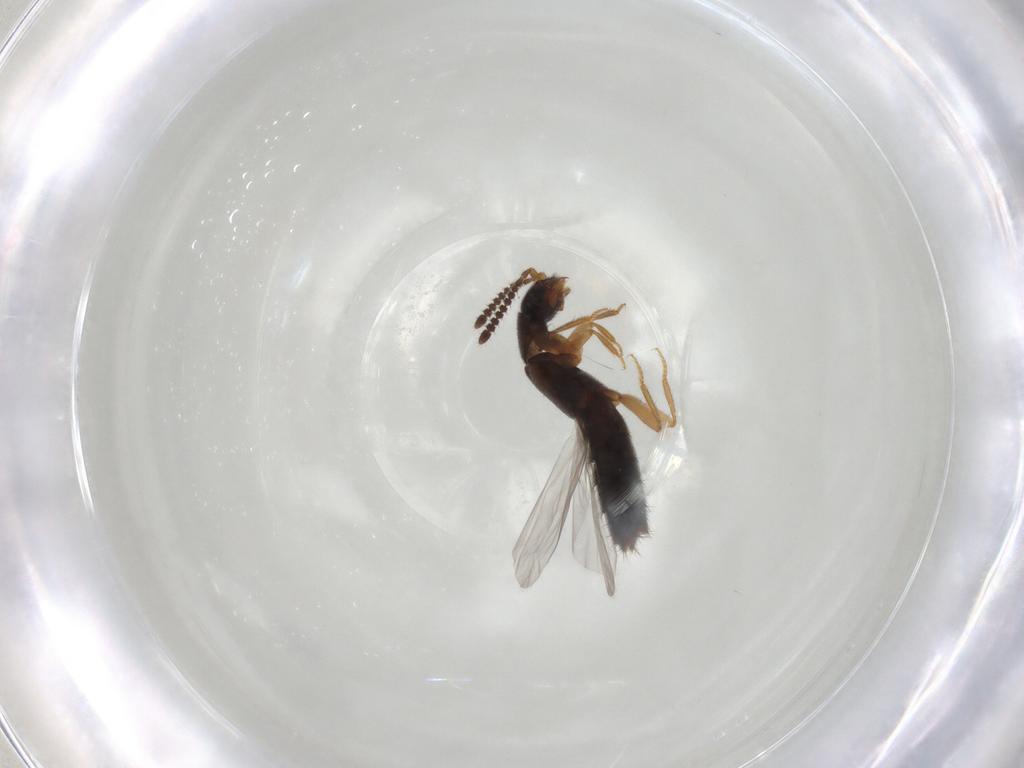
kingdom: Animalia
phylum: Arthropoda
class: Insecta
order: Coleoptera
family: Staphylinidae
